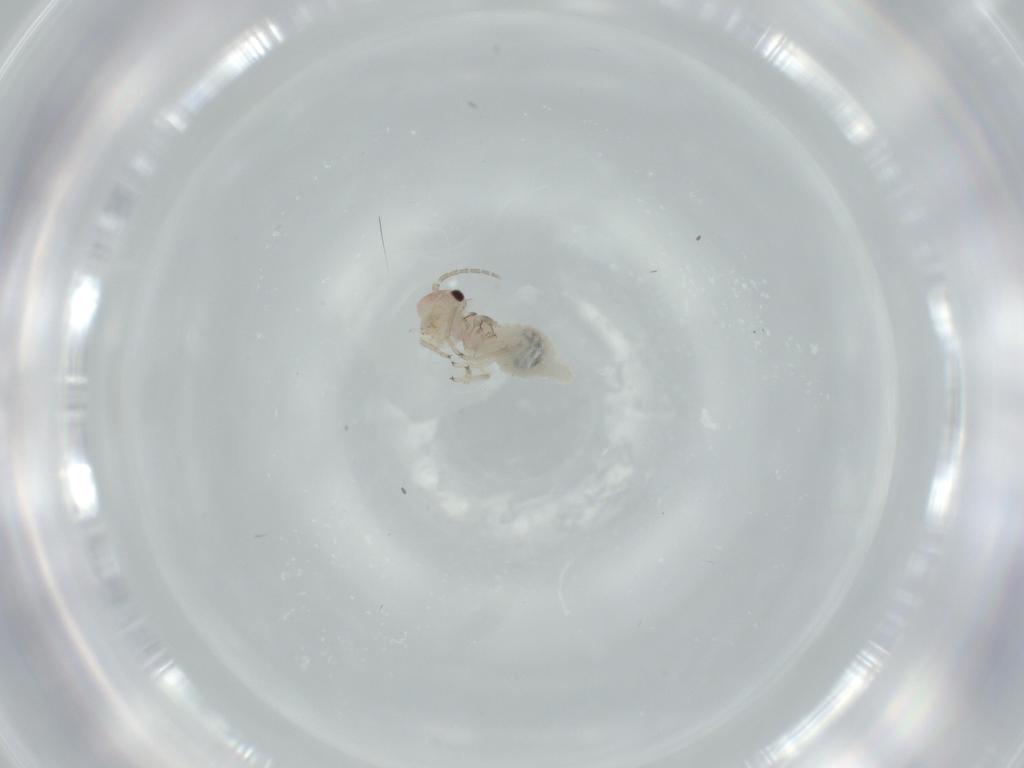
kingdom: Animalia
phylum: Arthropoda
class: Insecta
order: Psocodea
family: Amphipsocidae
